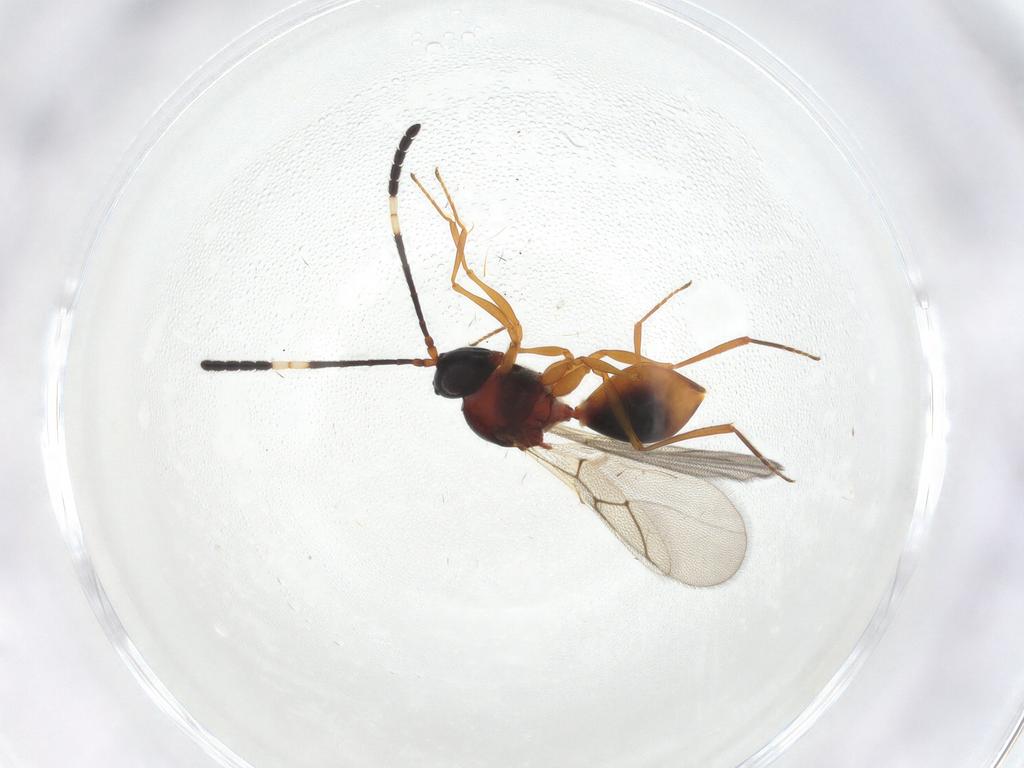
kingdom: Animalia
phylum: Arthropoda
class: Insecta
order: Hymenoptera
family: Figitidae
